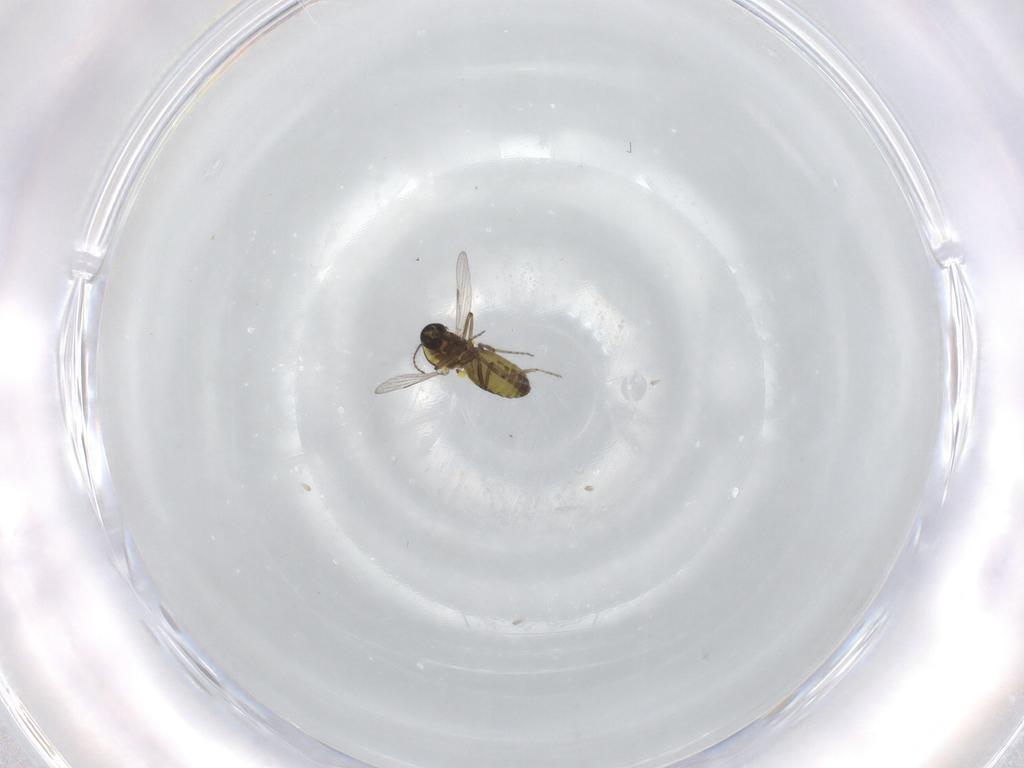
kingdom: Animalia
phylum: Arthropoda
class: Insecta
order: Diptera
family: Ceratopogonidae
